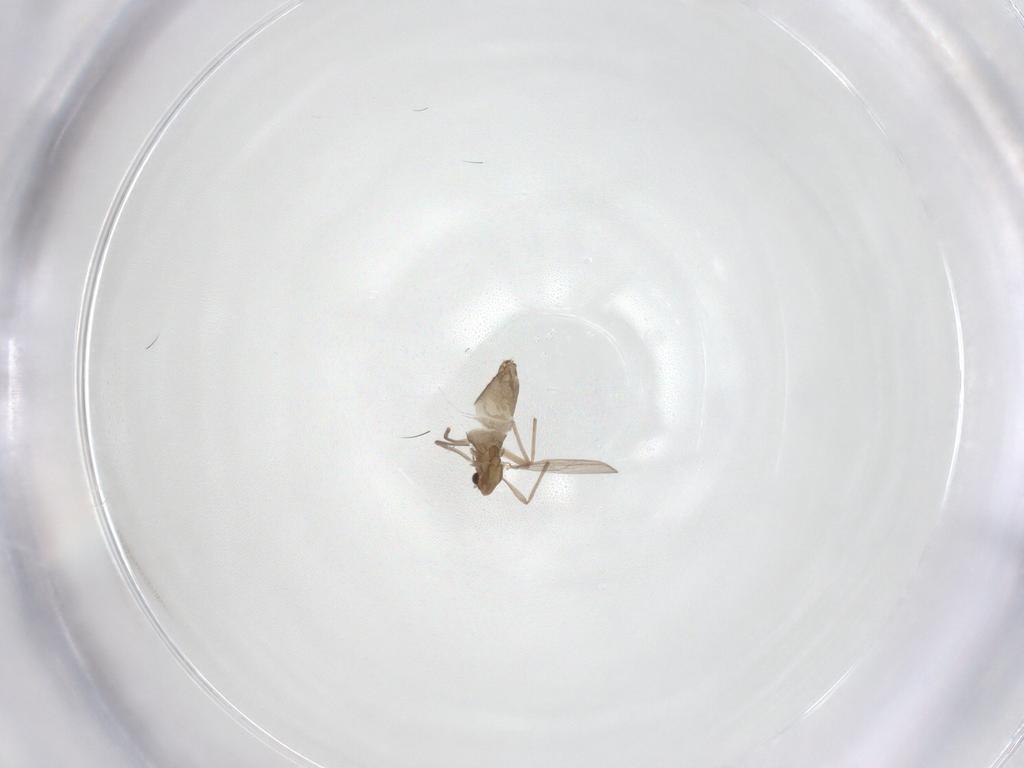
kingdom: Animalia
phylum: Arthropoda
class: Insecta
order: Diptera
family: Chironomidae
